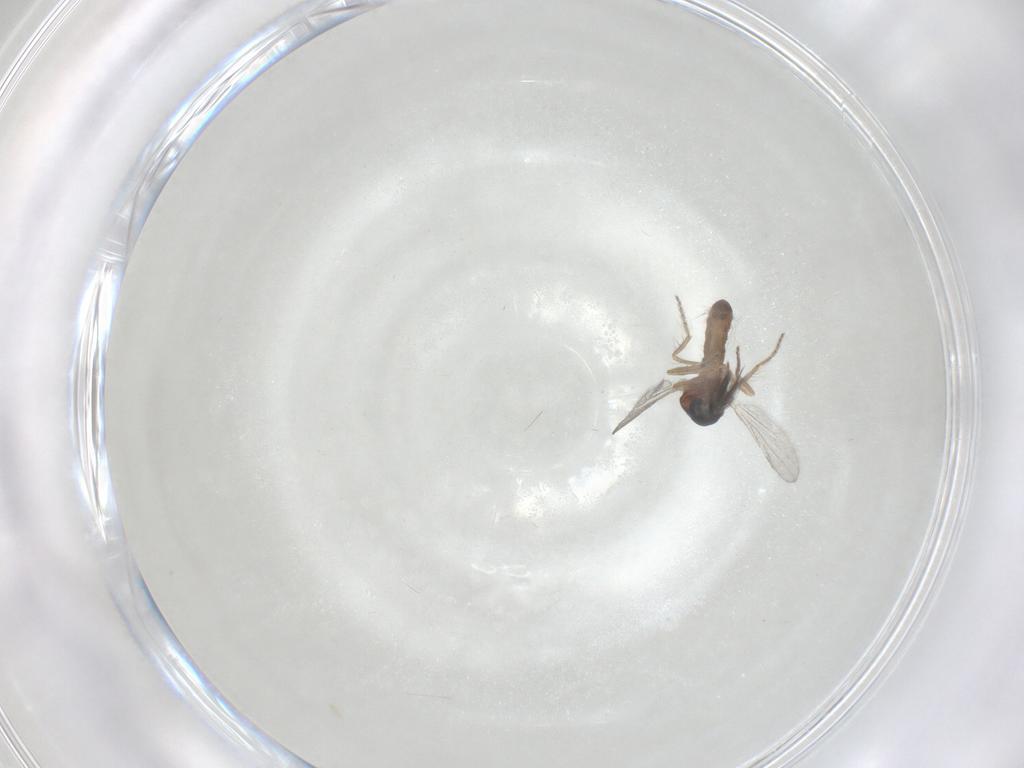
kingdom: Animalia
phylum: Arthropoda
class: Insecta
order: Diptera
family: Ceratopogonidae
